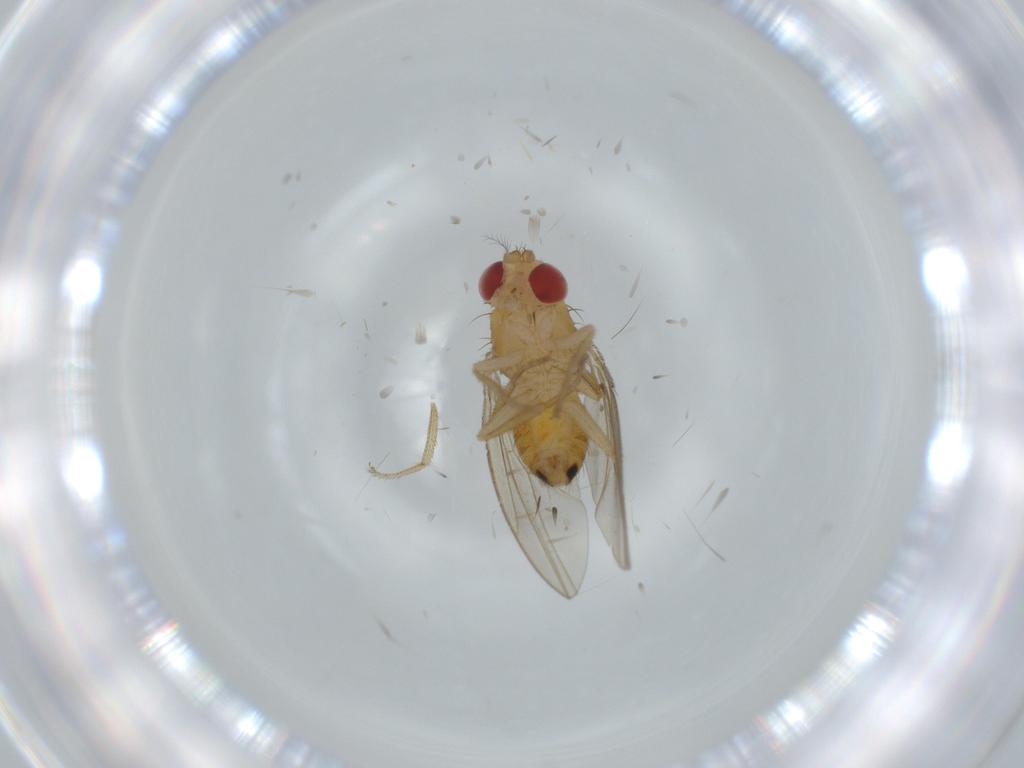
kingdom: Animalia
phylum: Arthropoda
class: Insecta
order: Diptera
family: Drosophilidae
